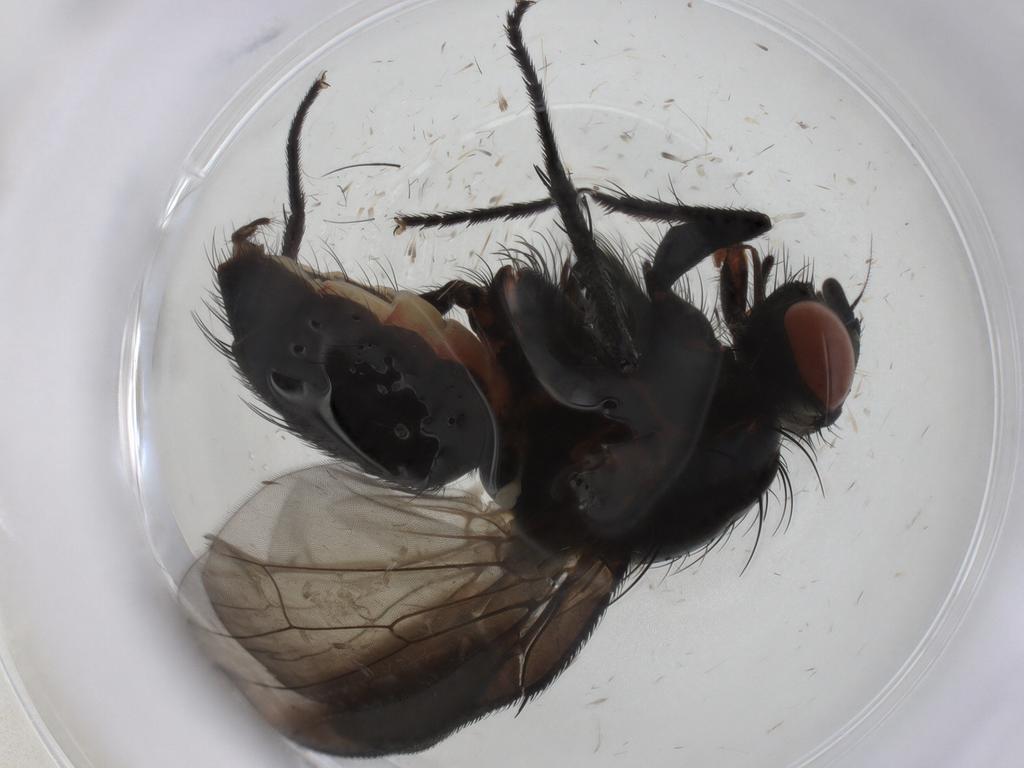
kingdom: Animalia
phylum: Arthropoda
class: Insecta
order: Diptera
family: Anthomyiidae
